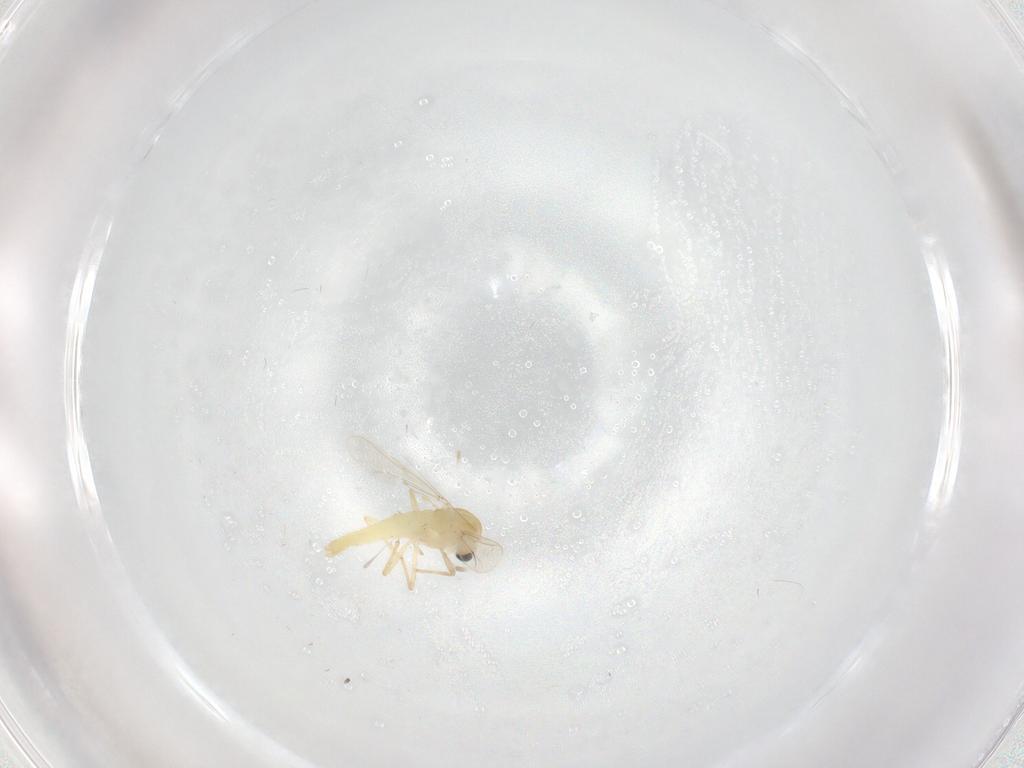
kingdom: Animalia
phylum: Arthropoda
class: Insecta
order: Diptera
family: Chironomidae
